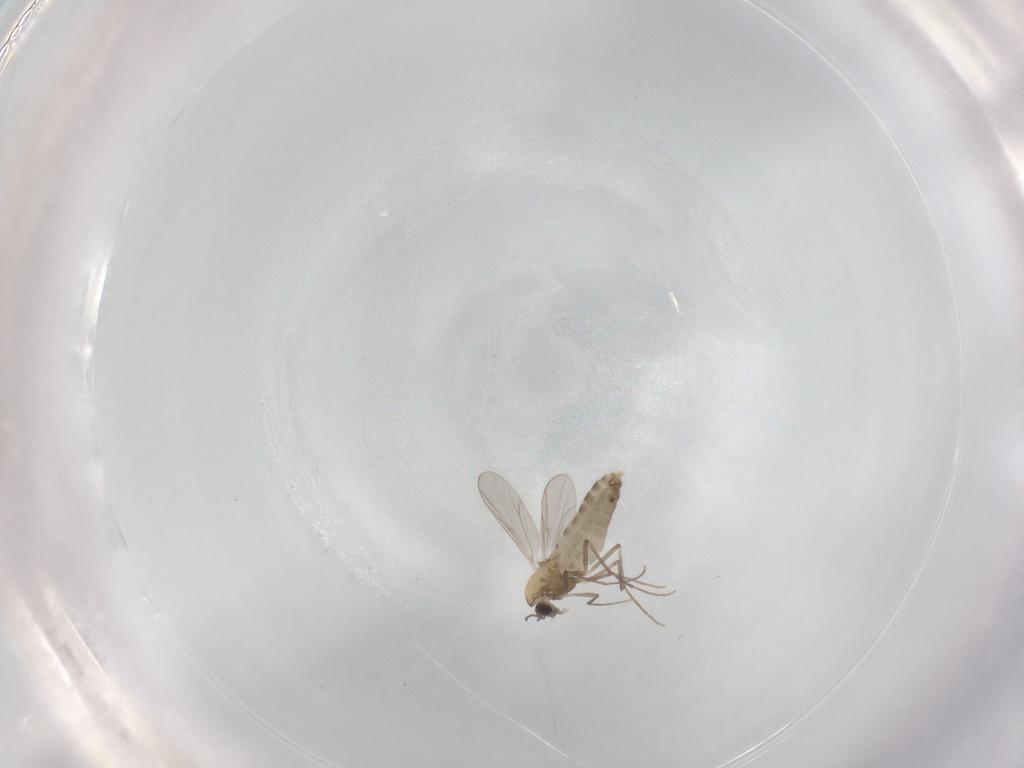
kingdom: Animalia
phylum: Arthropoda
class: Insecta
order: Diptera
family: Chironomidae
